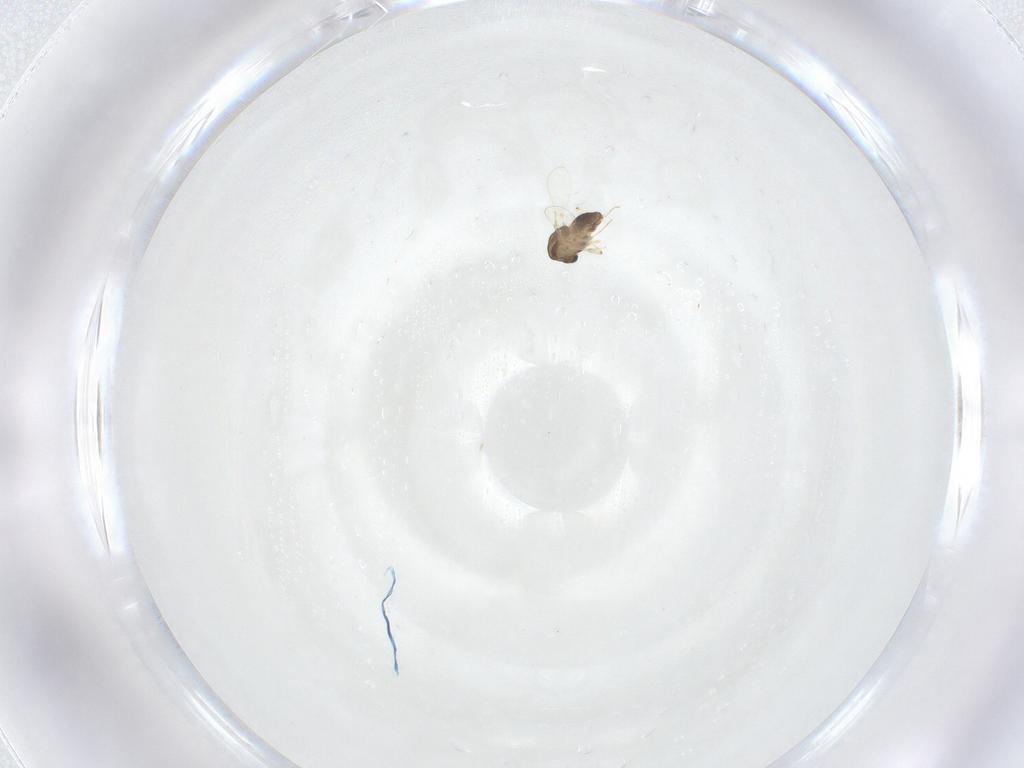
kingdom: Animalia
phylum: Arthropoda
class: Insecta
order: Diptera
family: Chironomidae
